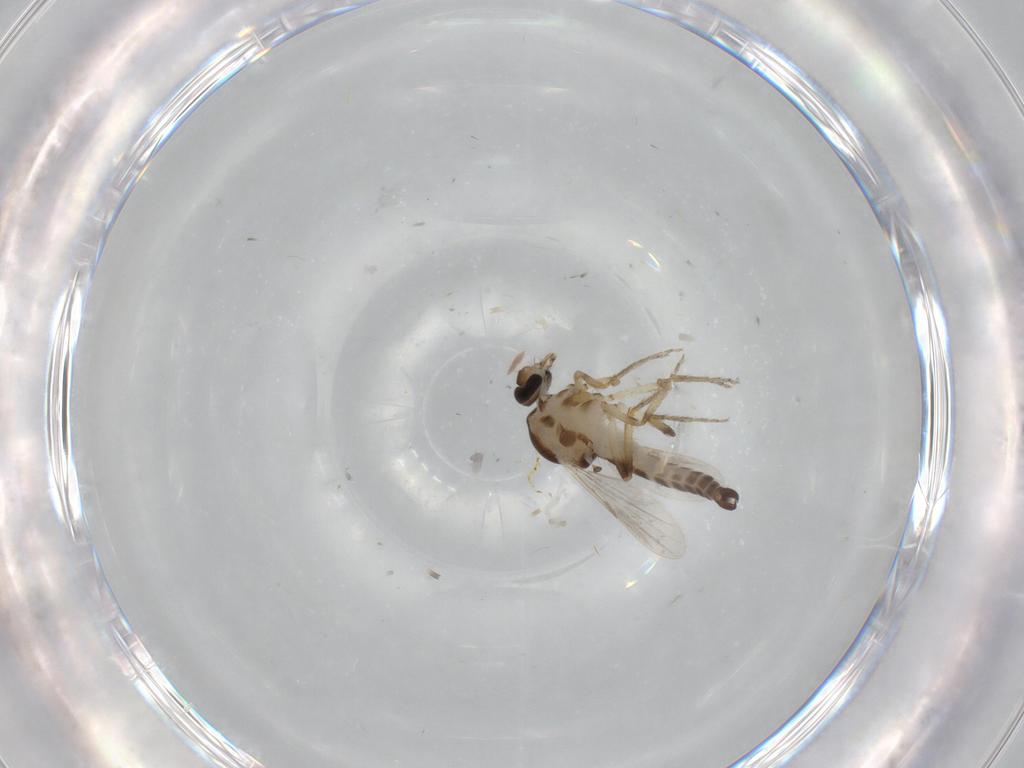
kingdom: Animalia
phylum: Arthropoda
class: Insecta
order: Diptera
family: Ceratopogonidae
